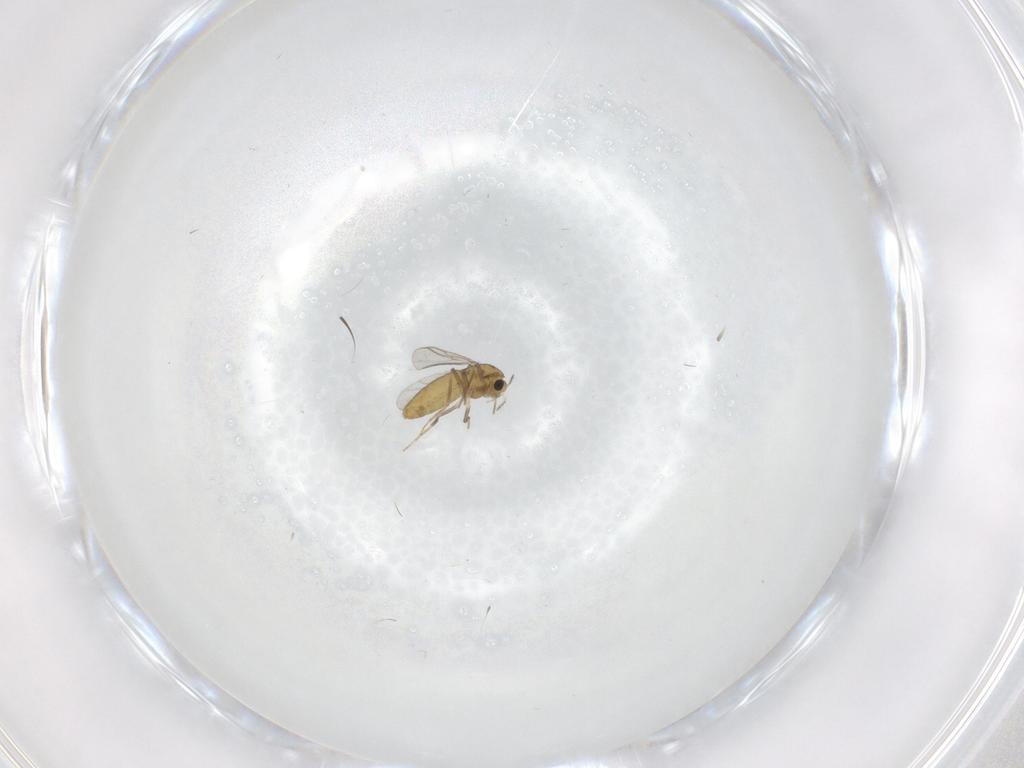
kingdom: Animalia
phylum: Arthropoda
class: Insecta
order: Diptera
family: Chironomidae
